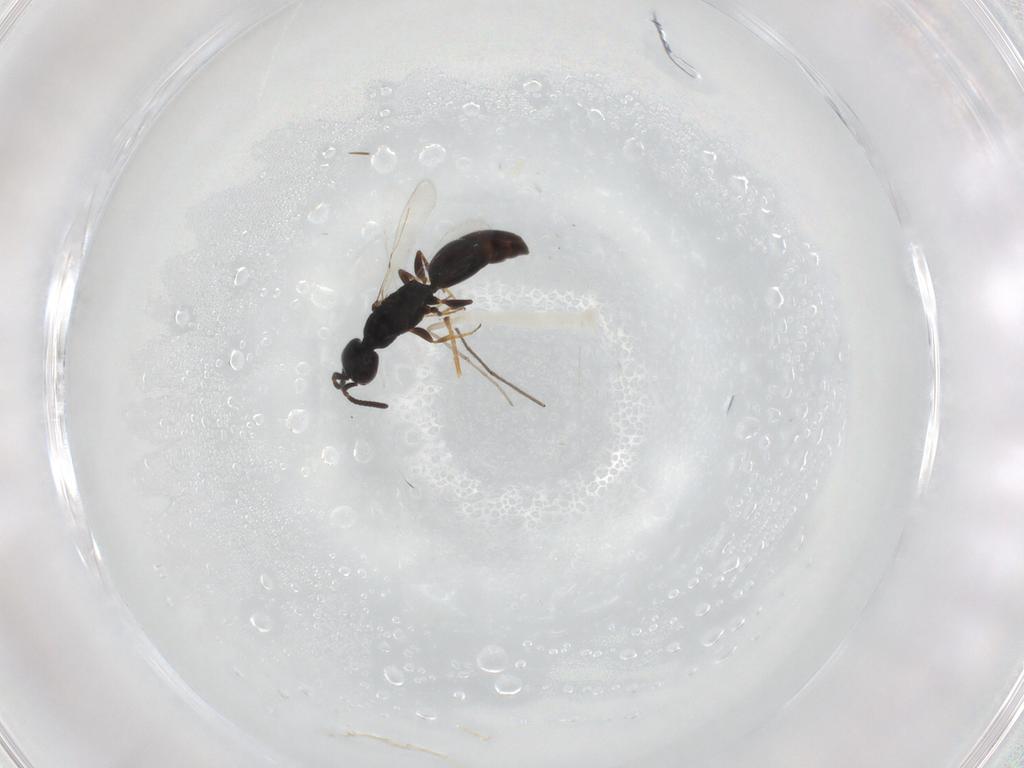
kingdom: Animalia
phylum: Arthropoda
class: Insecta
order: Hymenoptera
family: Bethylidae
